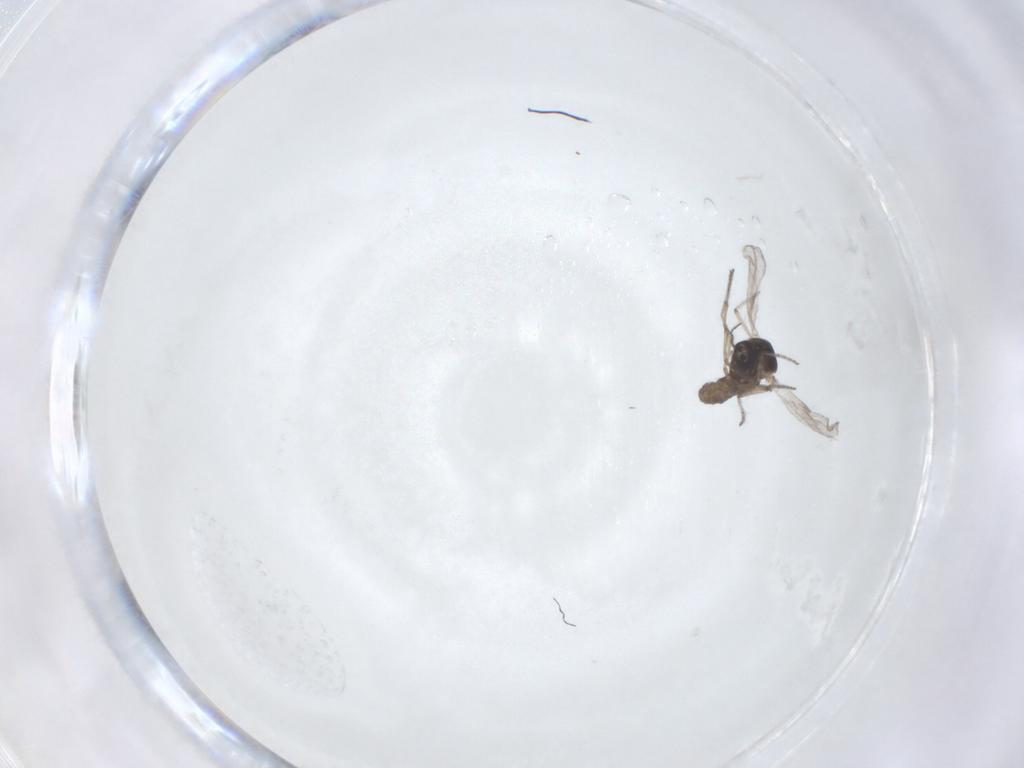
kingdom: Animalia
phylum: Arthropoda
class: Insecta
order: Diptera
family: Ceratopogonidae
